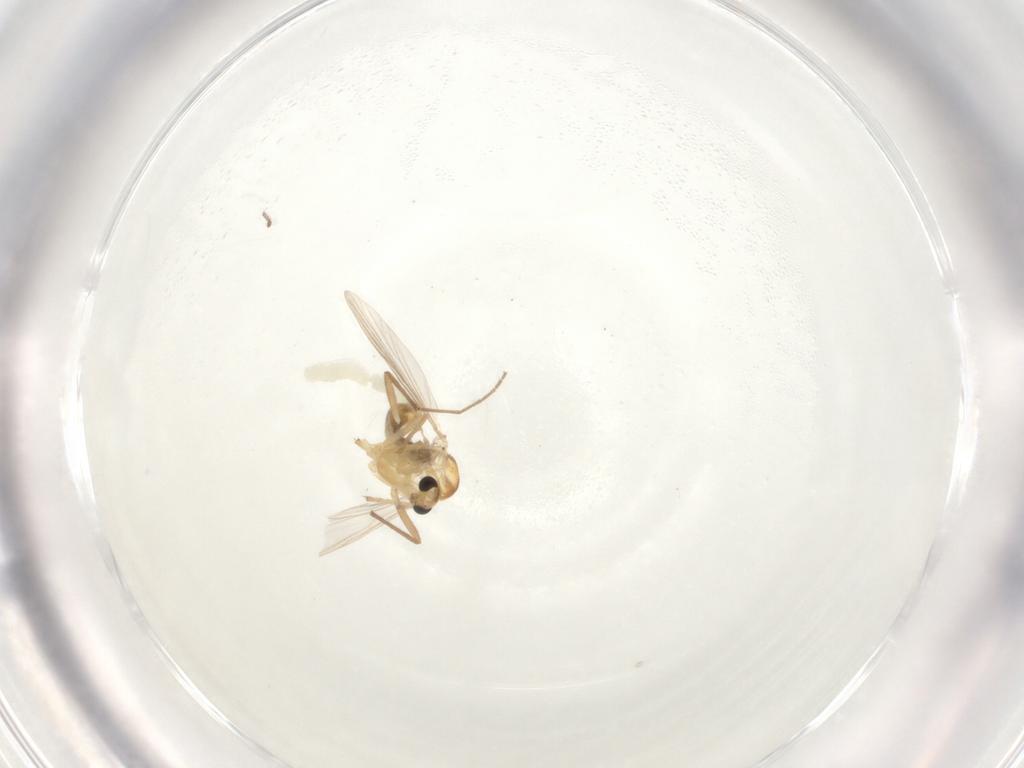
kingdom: Animalia
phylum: Arthropoda
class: Insecta
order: Diptera
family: Chironomidae
